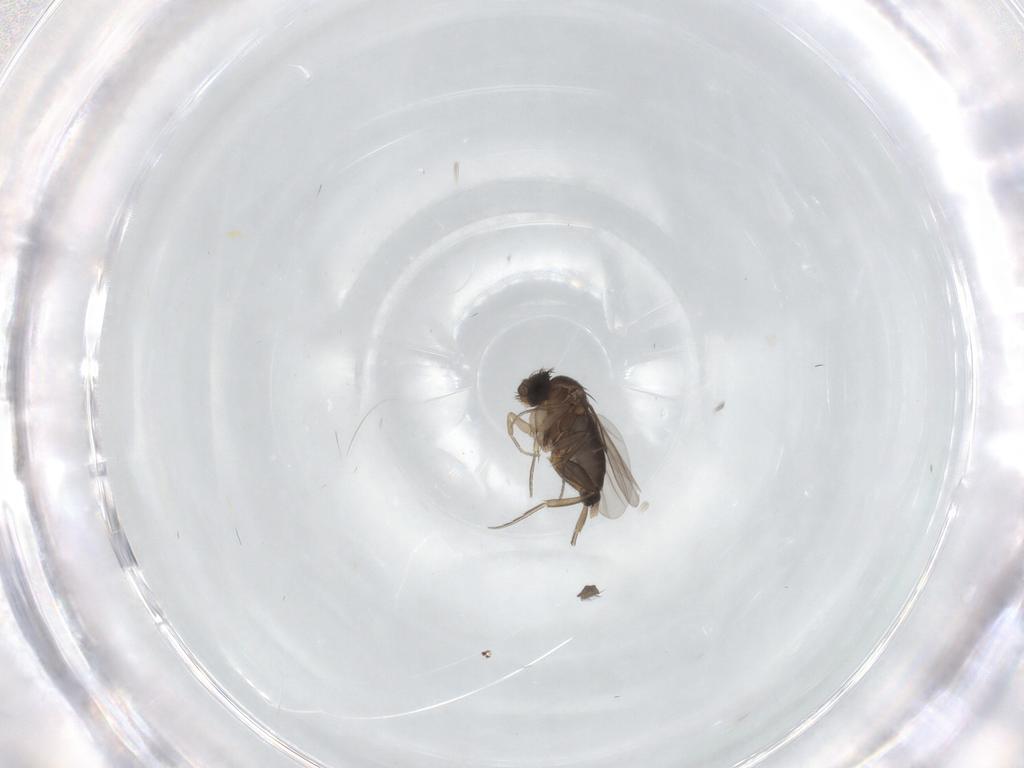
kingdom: Animalia
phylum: Arthropoda
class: Insecta
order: Diptera
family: Phoridae
